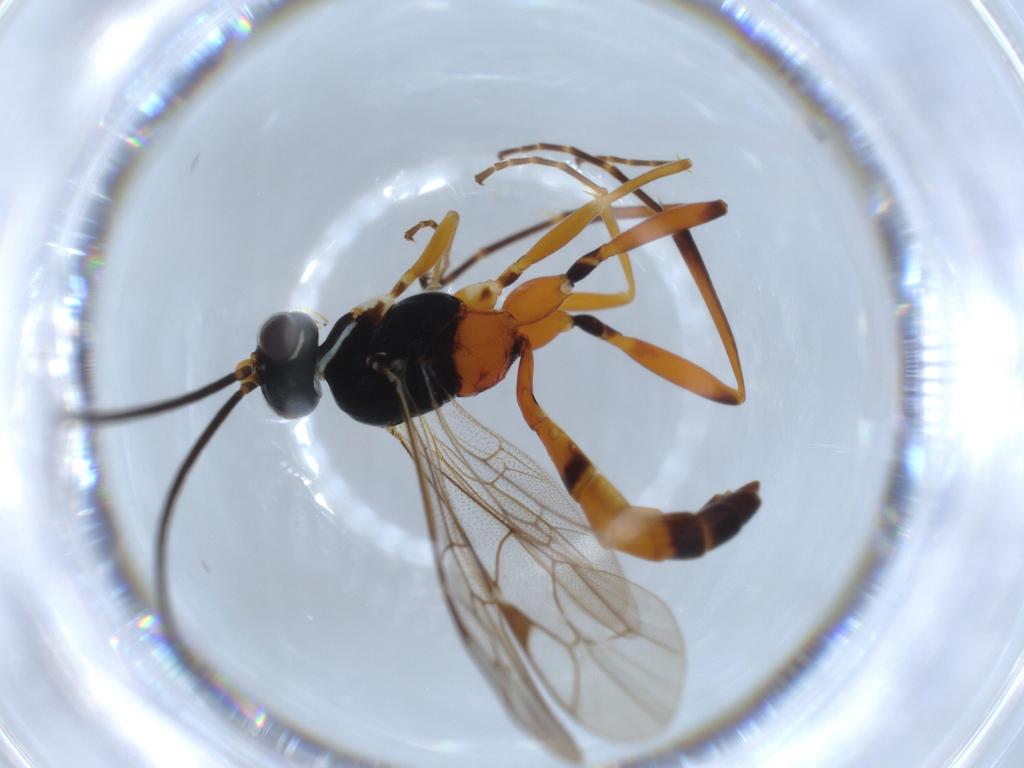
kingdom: Animalia
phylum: Arthropoda
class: Insecta
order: Hymenoptera
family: Ichneumonidae
